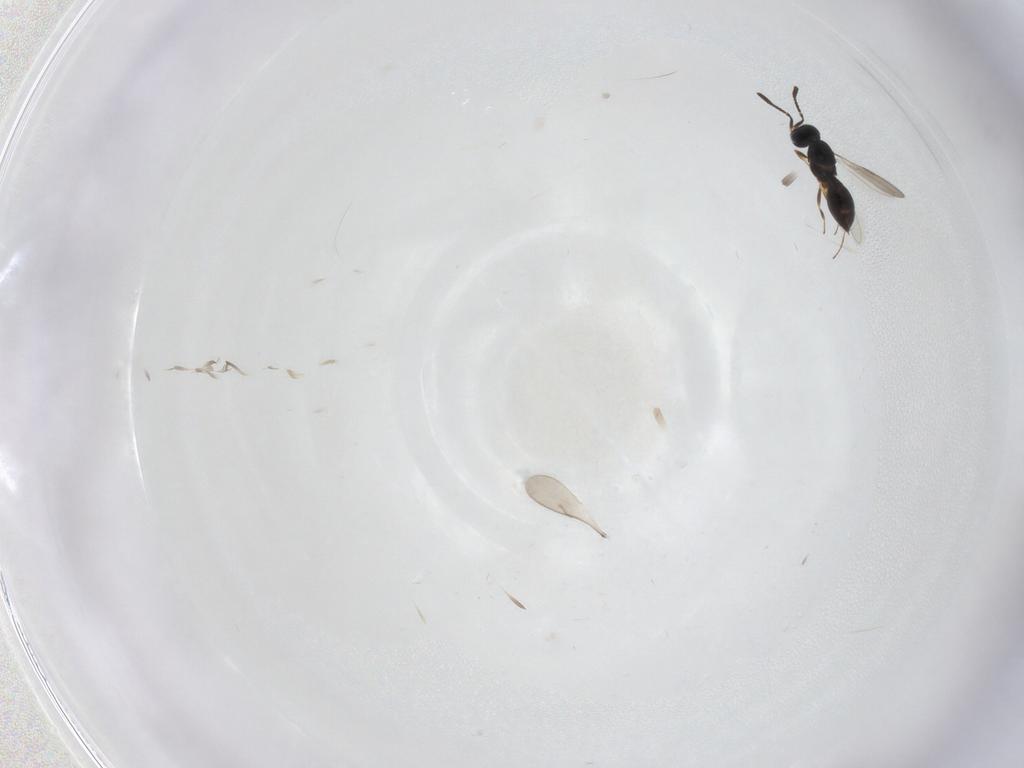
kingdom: Animalia
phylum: Arthropoda
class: Insecta
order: Hymenoptera
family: Scelionidae
